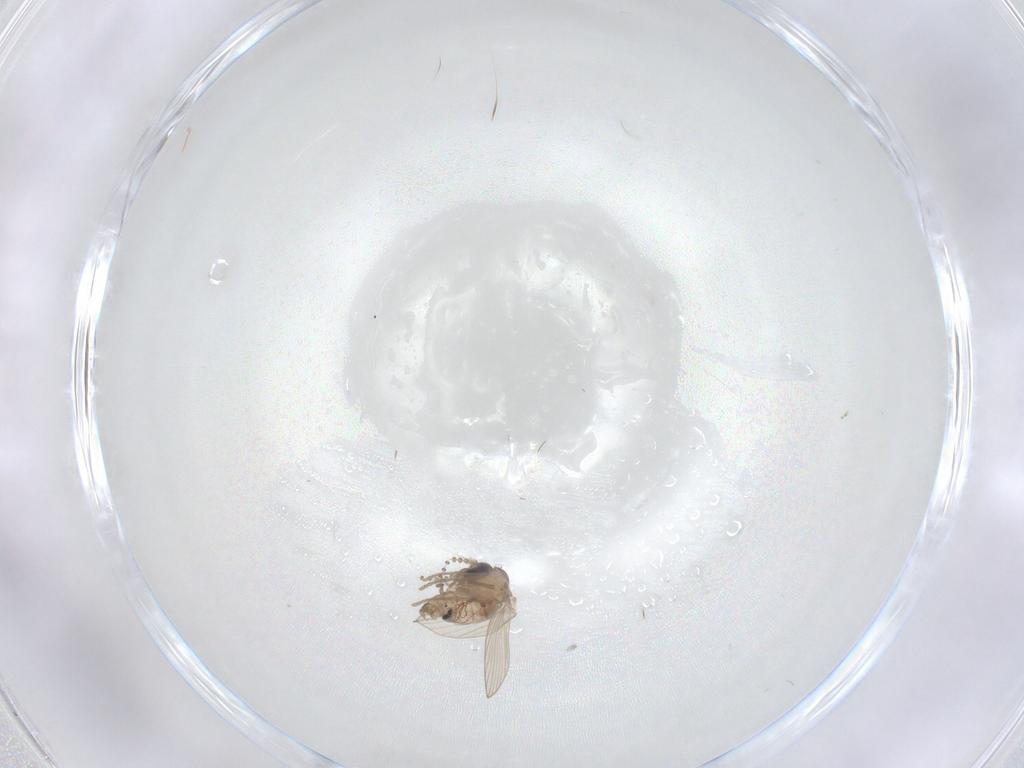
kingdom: Animalia
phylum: Arthropoda
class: Insecta
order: Diptera
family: Psychodidae
